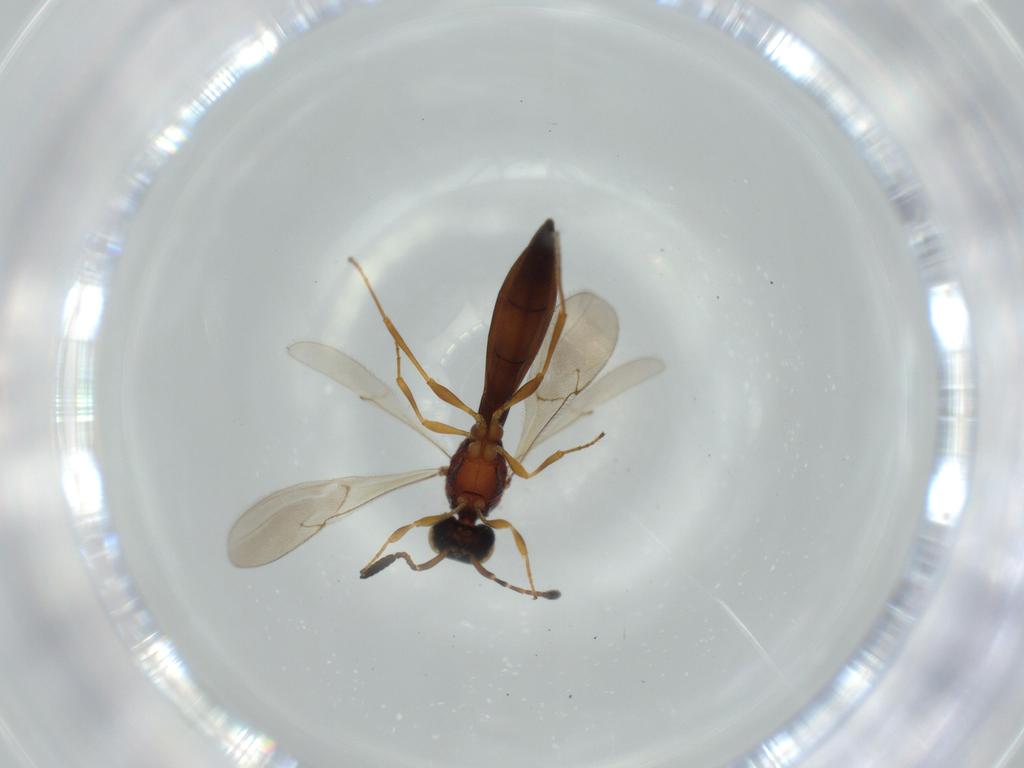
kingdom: Animalia
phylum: Arthropoda
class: Insecta
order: Hymenoptera
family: Scelionidae
